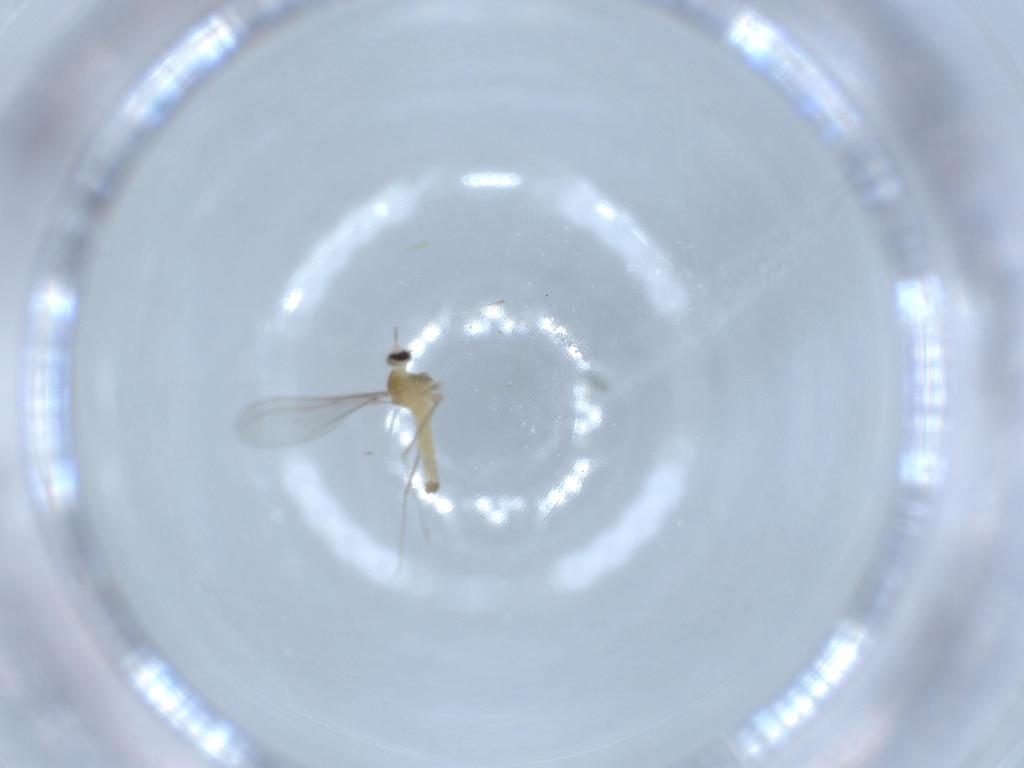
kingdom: Animalia
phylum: Arthropoda
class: Insecta
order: Diptera
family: Cecidomyiidae
